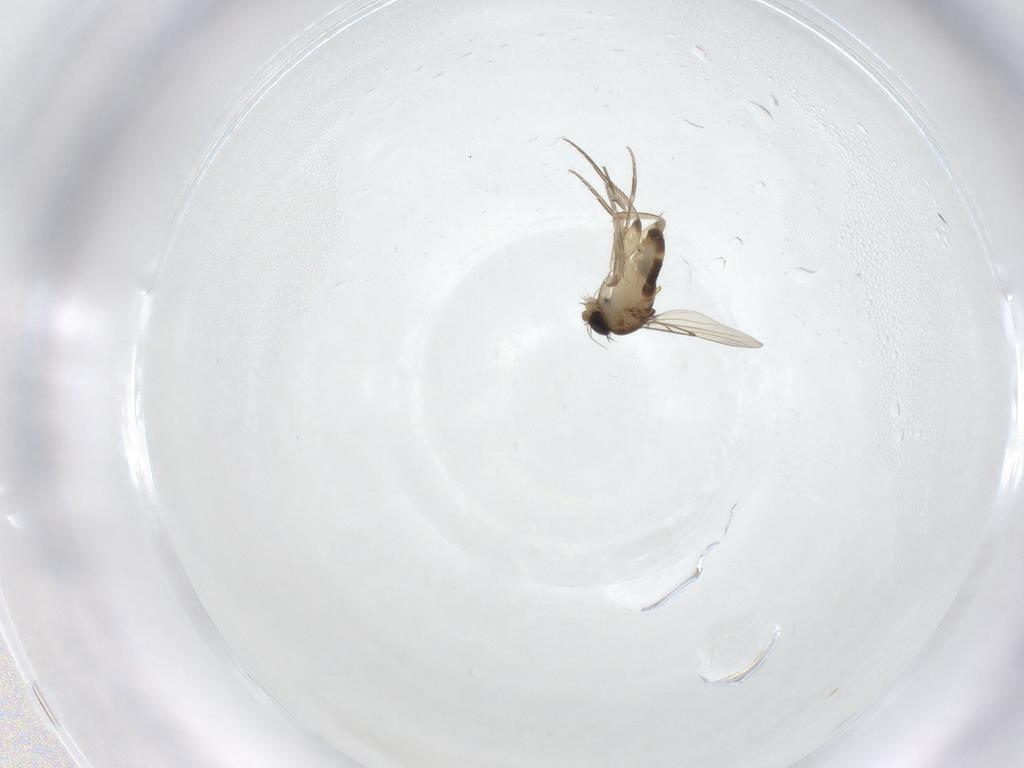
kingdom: Animalia
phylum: Arthropoda
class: Insecta
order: Diptera
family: Phoridae
